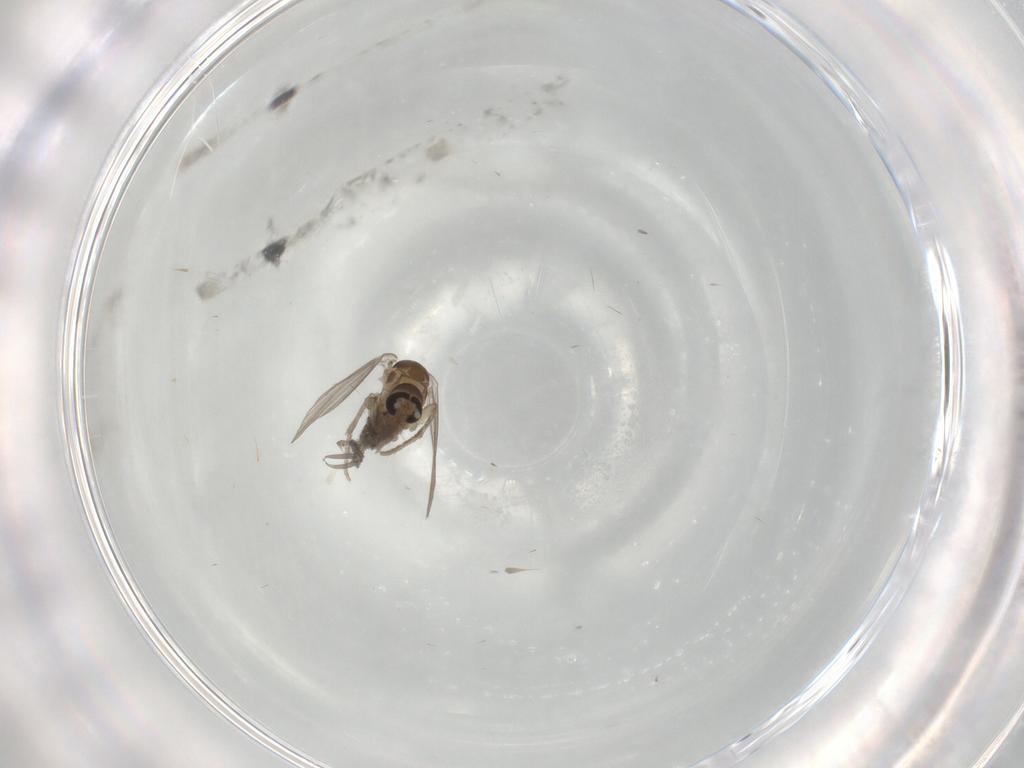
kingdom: Animalia
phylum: Arthropoda
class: Insecta
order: Diptera
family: Psychodidae
